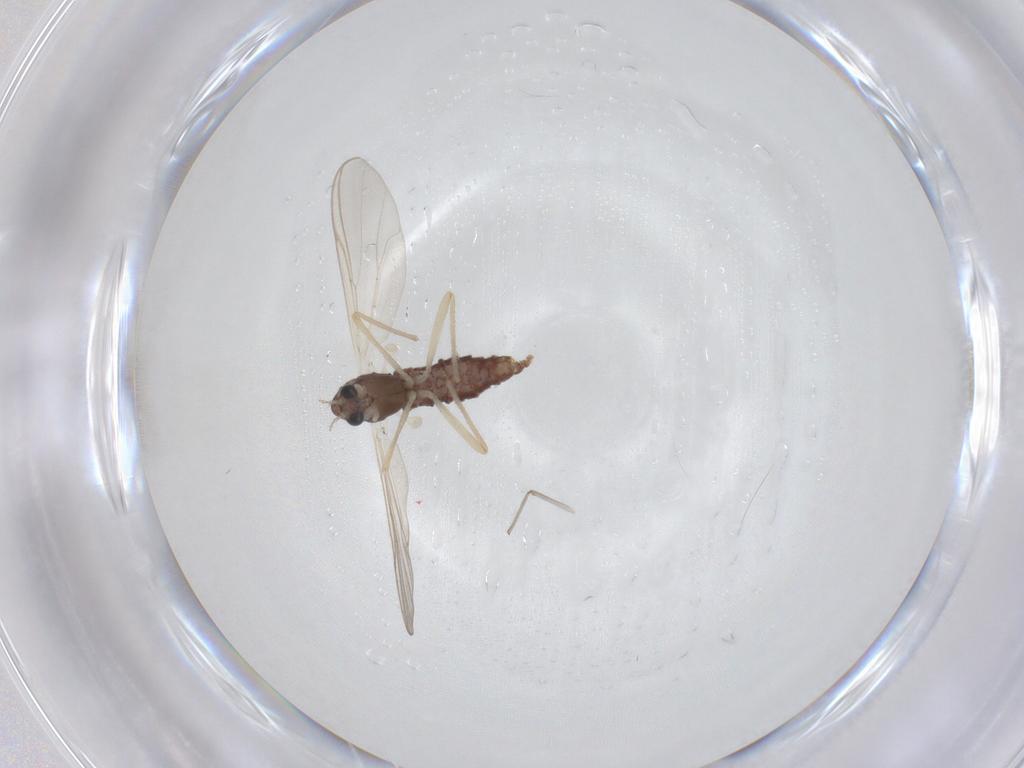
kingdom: Animalia
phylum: Arthropoda
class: Insecta
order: Diptera
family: Chironomidae
